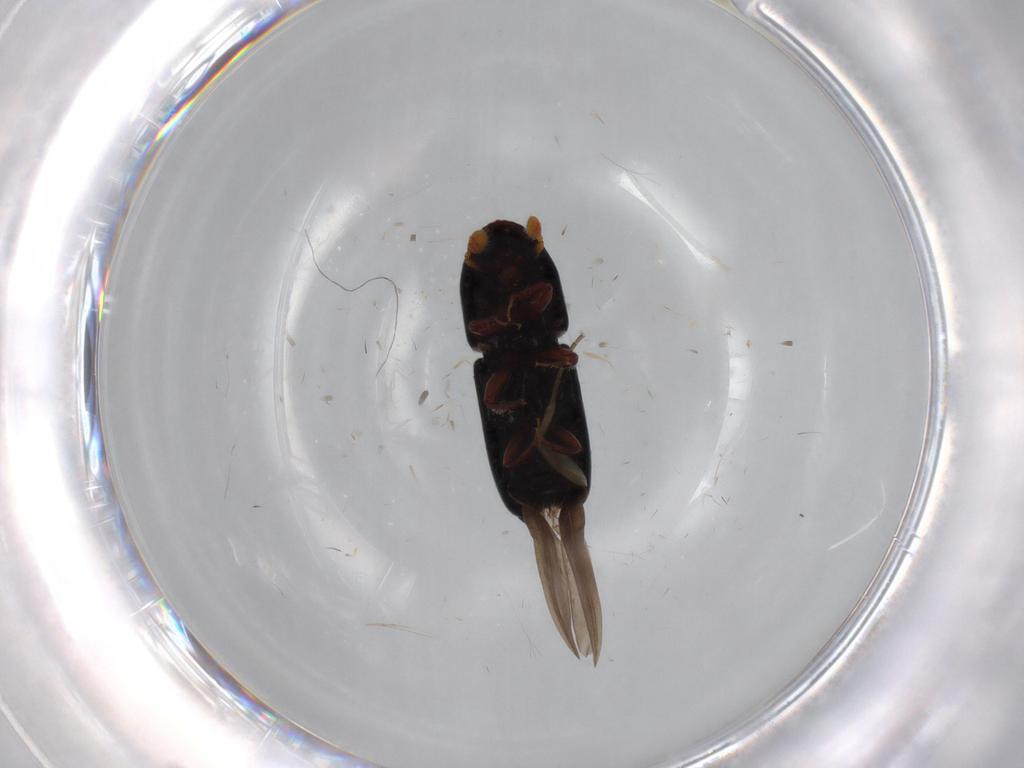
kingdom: Animalia
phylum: Arthropoda
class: Insecta
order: Coleoptera
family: Curculionidae
